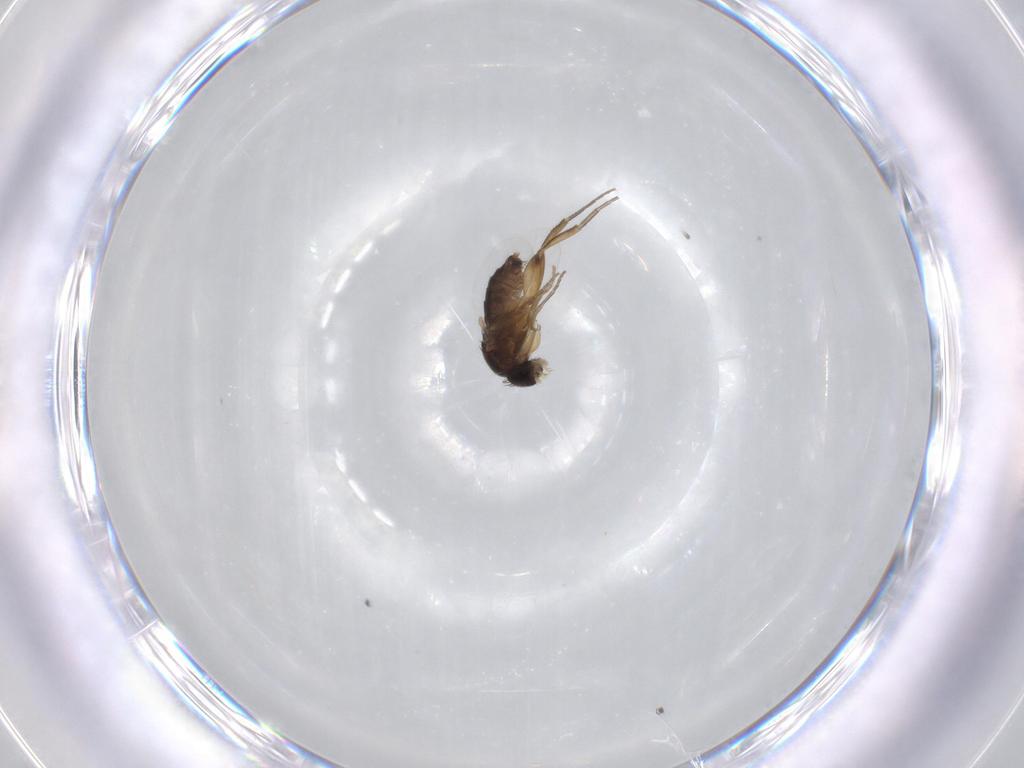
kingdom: Animalia
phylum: Arthropoda
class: Insecta
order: Diptera
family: Phoridae
